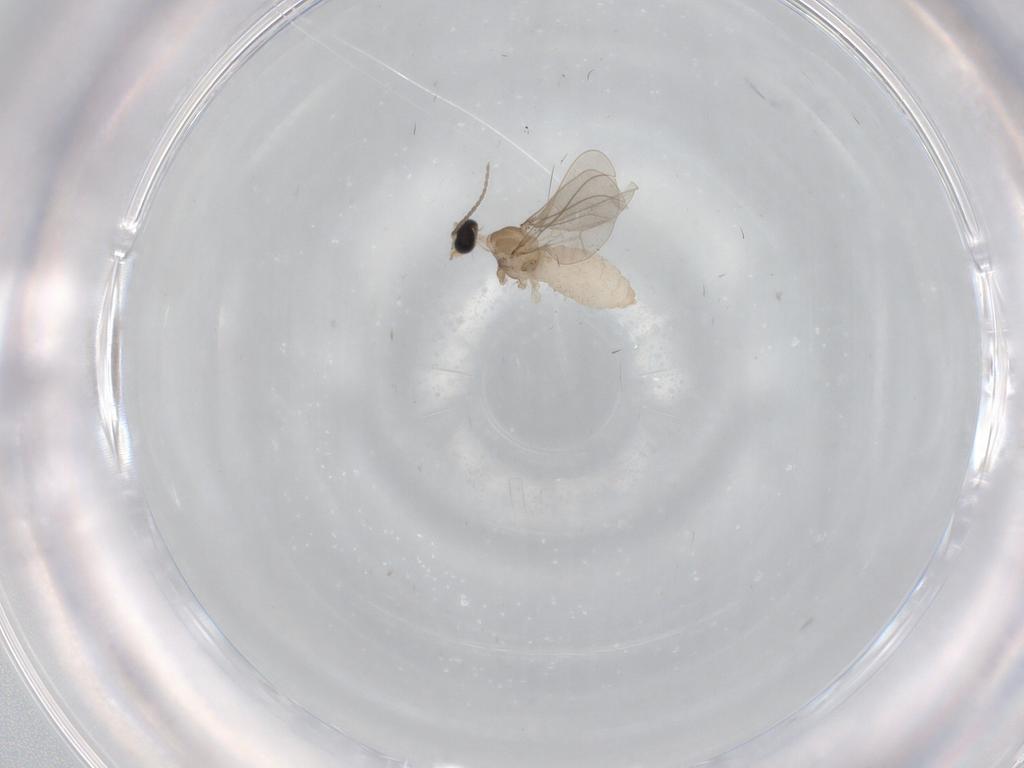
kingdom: Animalia
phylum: Arthropoda
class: Insecta
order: Diptera
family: Cecidomyiidae
